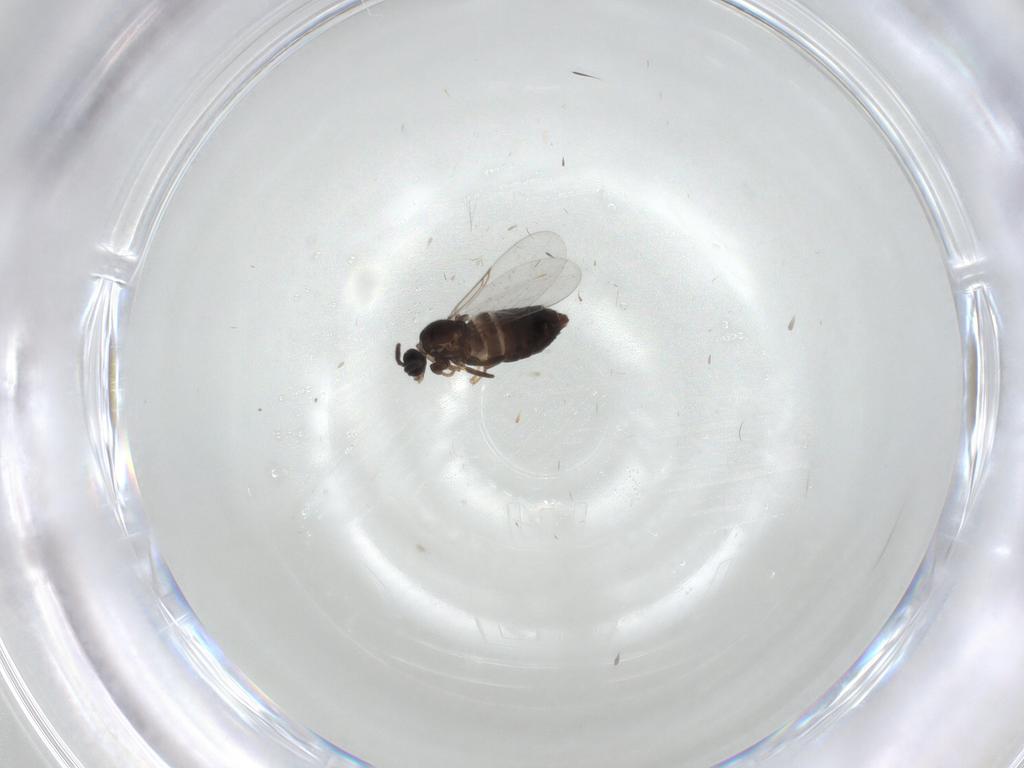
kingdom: Animalia
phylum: Arthropoda
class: Insecta
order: Diptera
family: Scatopsidae
